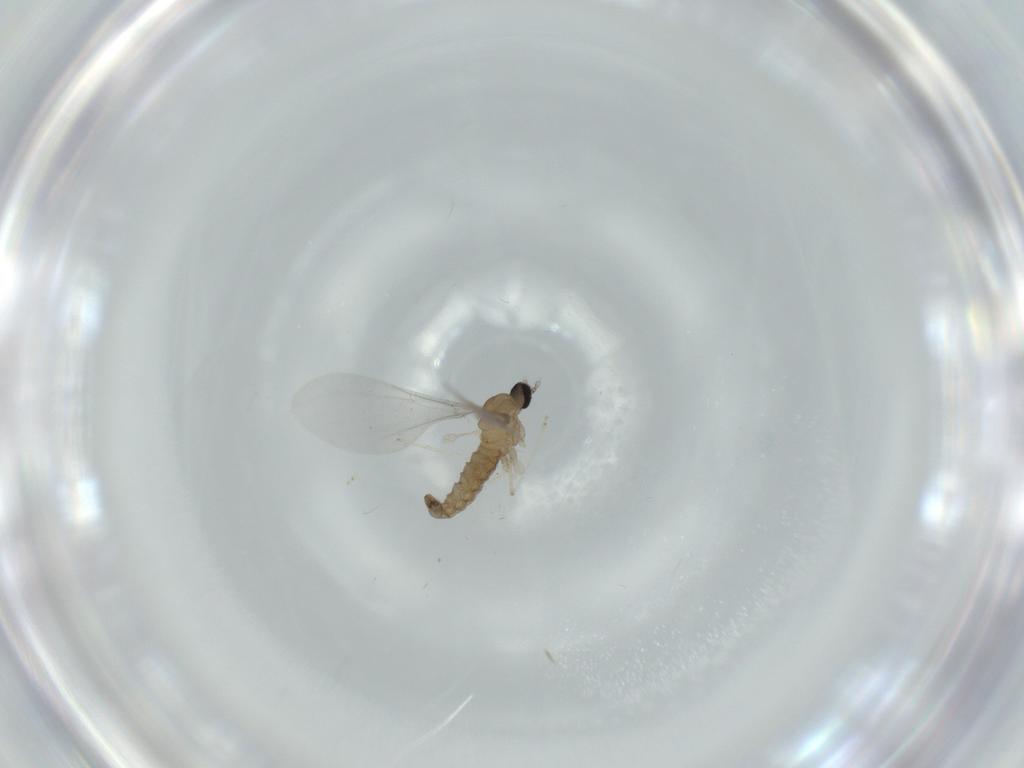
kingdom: Animalia
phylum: Arthropoda
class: Insecta
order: Diptera
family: Cecidomyiidae
